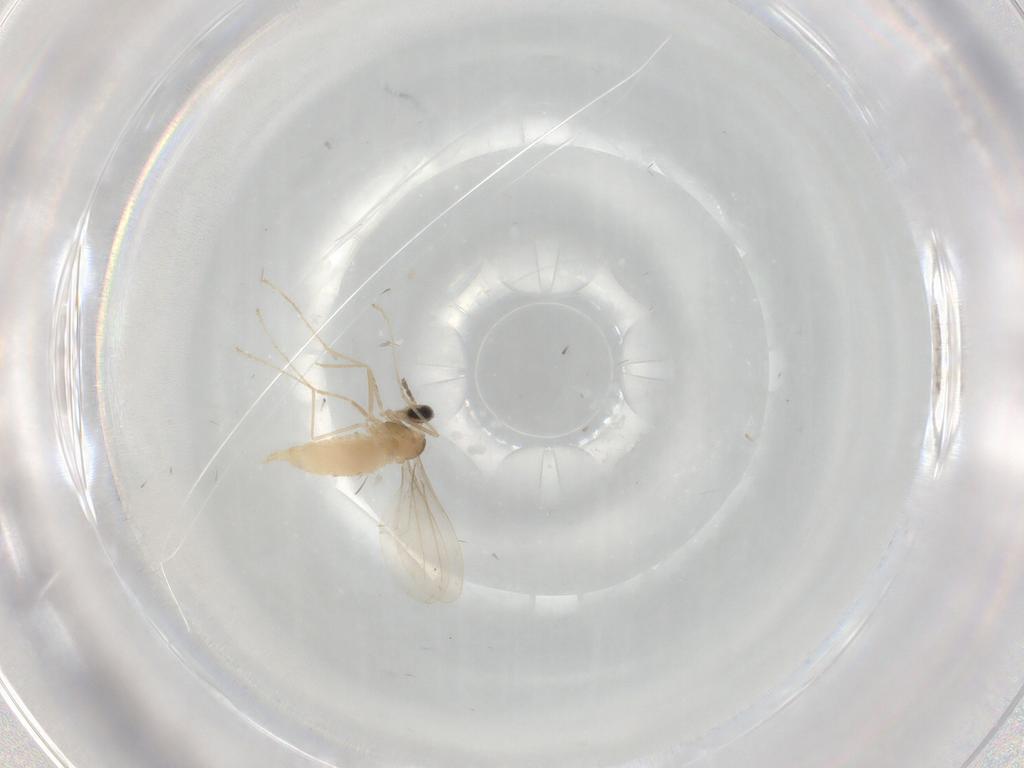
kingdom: Animalia
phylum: Arthropoda
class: Insecta
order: Diptera
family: Cecidomyiidae
